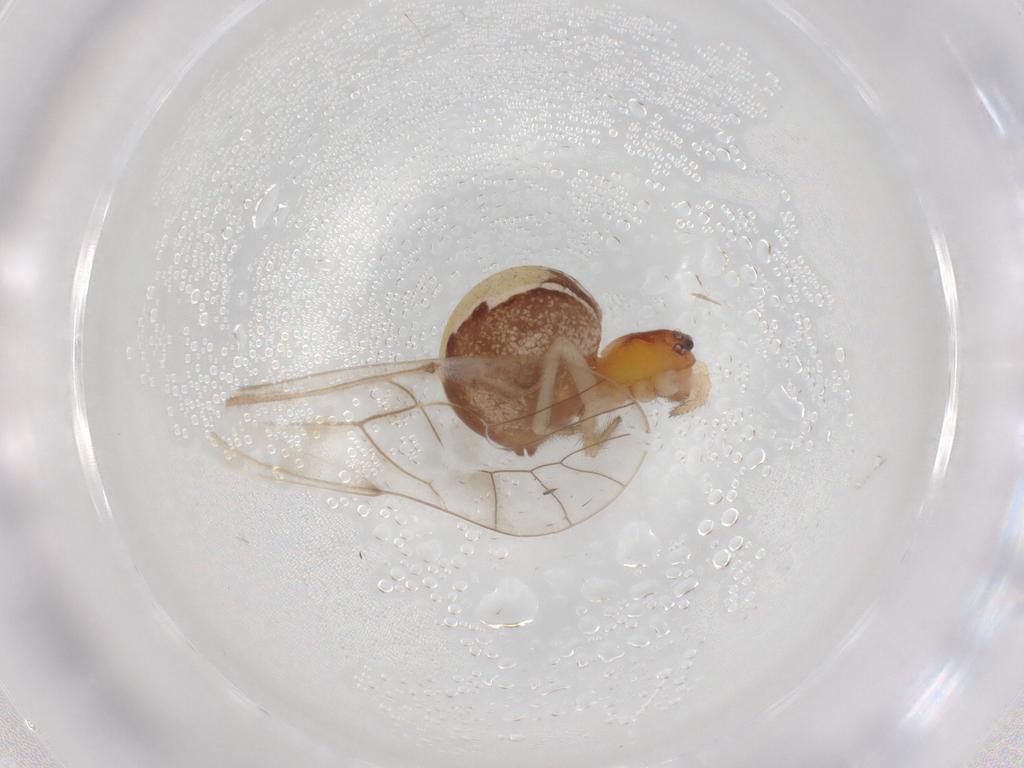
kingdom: Animalia
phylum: Arthropoda
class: Arachnida
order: Araneae
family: Theridiidae
